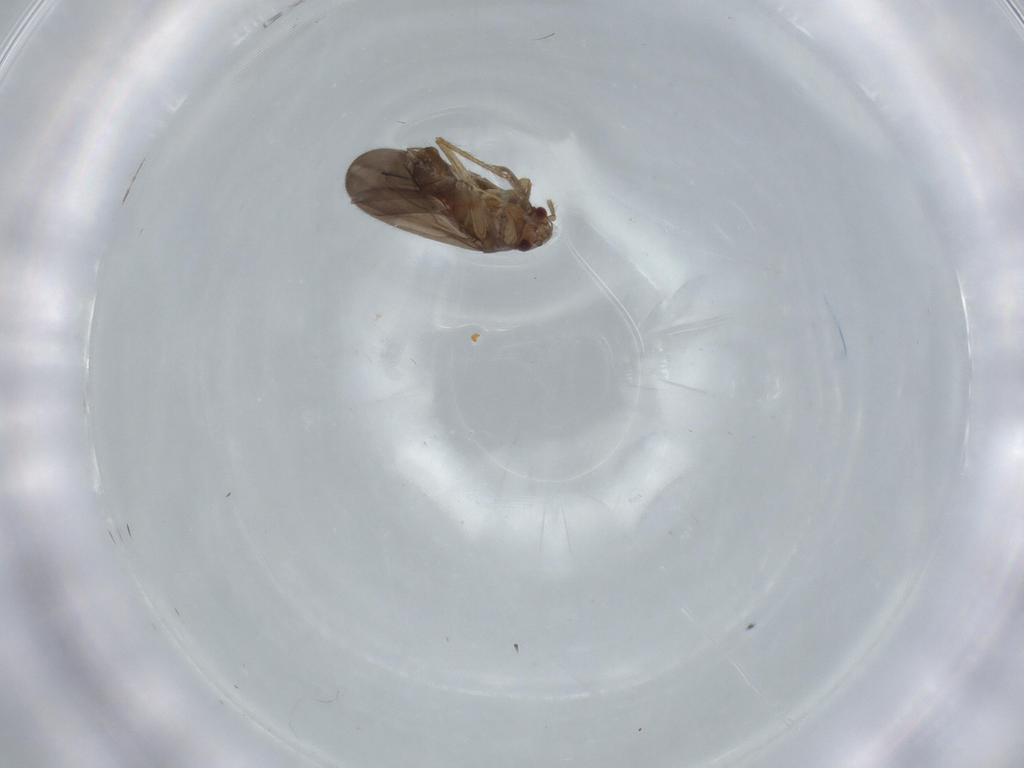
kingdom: Animalia
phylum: Arthropoda
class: Insecta
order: Hemiptera
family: Ceratocombidae
